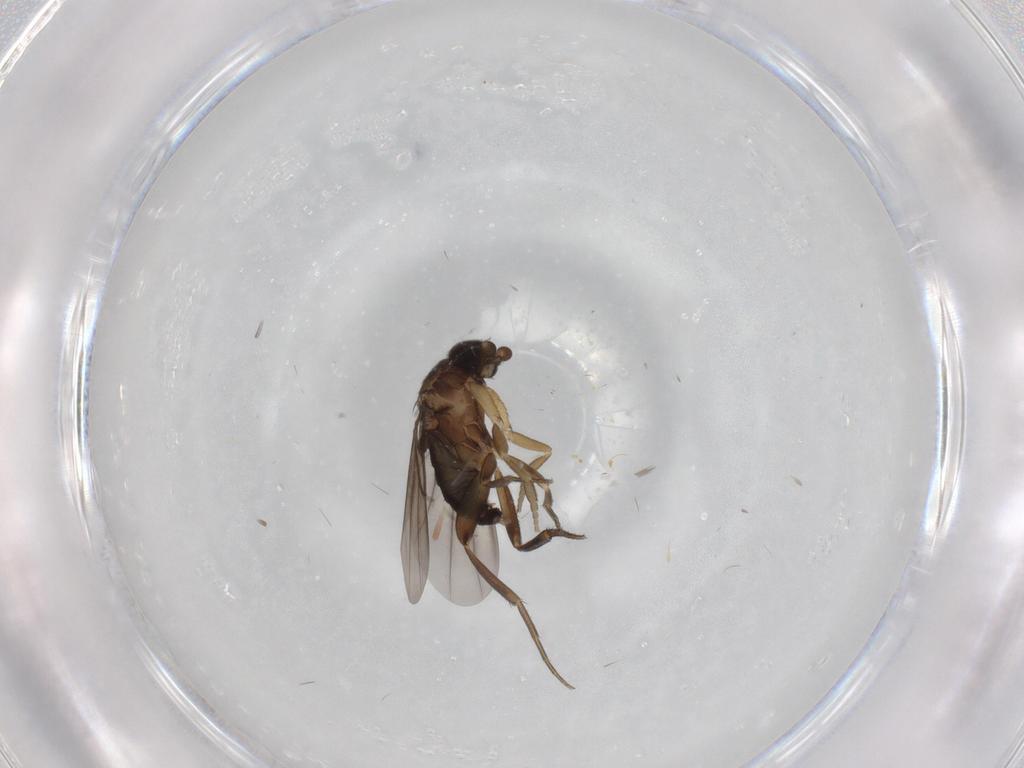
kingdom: Animalia
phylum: Arthropoda
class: Insecta
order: Diptera
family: Phoridae
